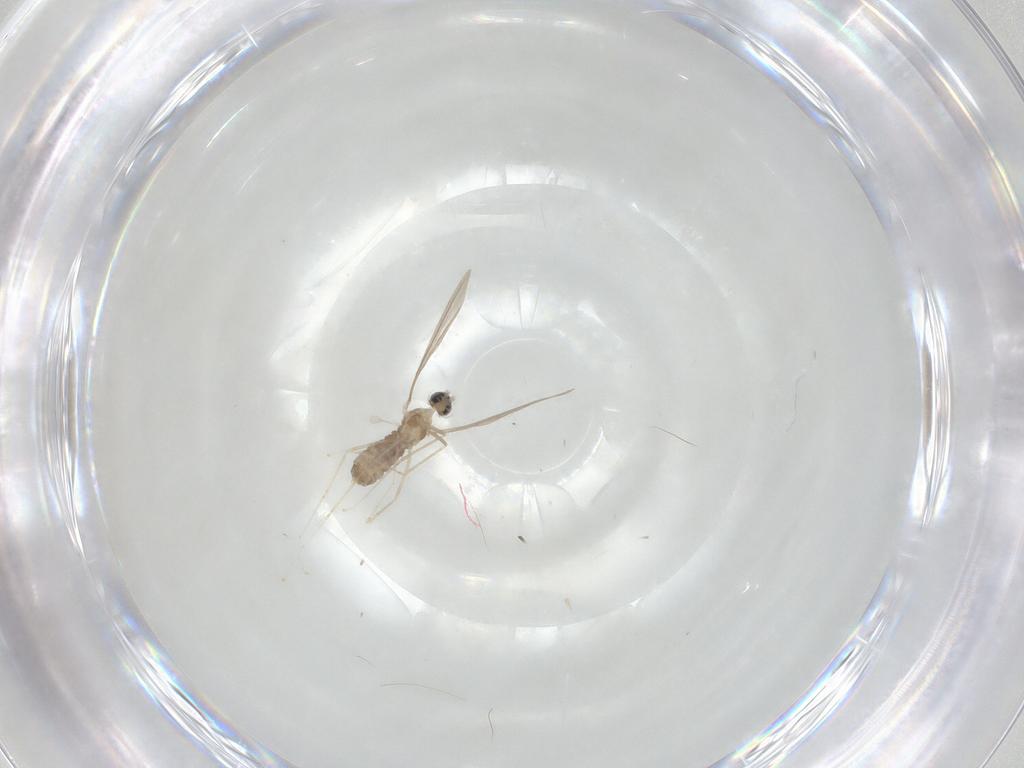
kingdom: Animalia
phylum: Arthropoda
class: Insecta
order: Diptera
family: Cecidomyiidae
